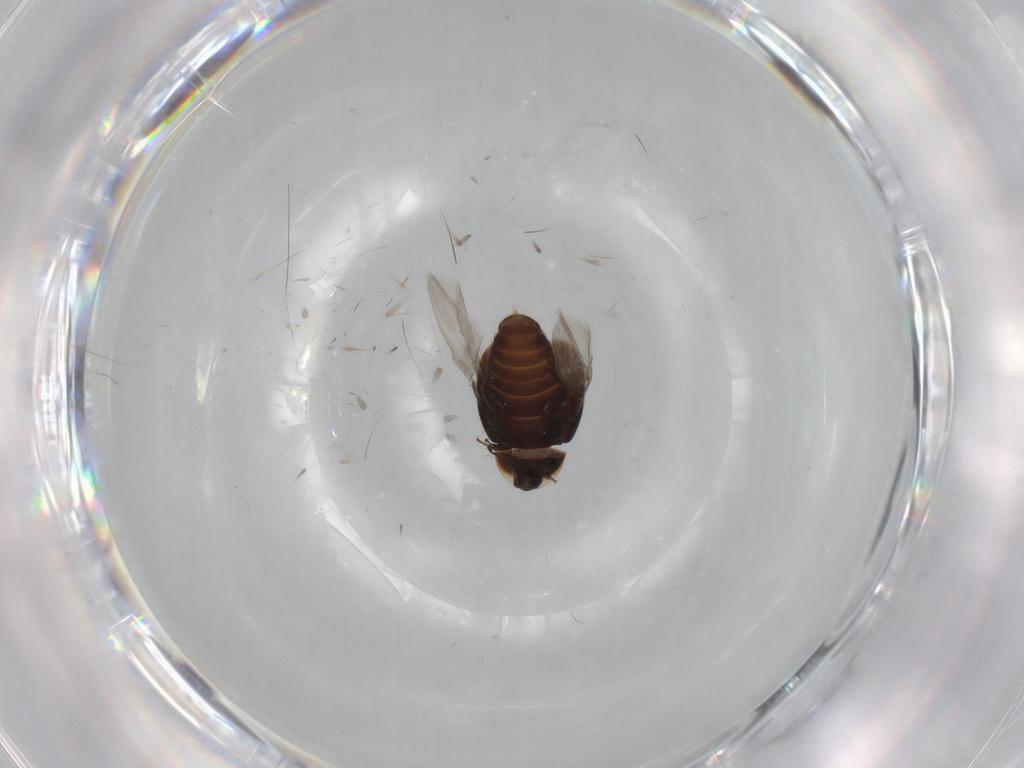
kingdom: Animalia
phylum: Arthropoda
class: Insecta
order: Coleoptera
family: Corylophidae
